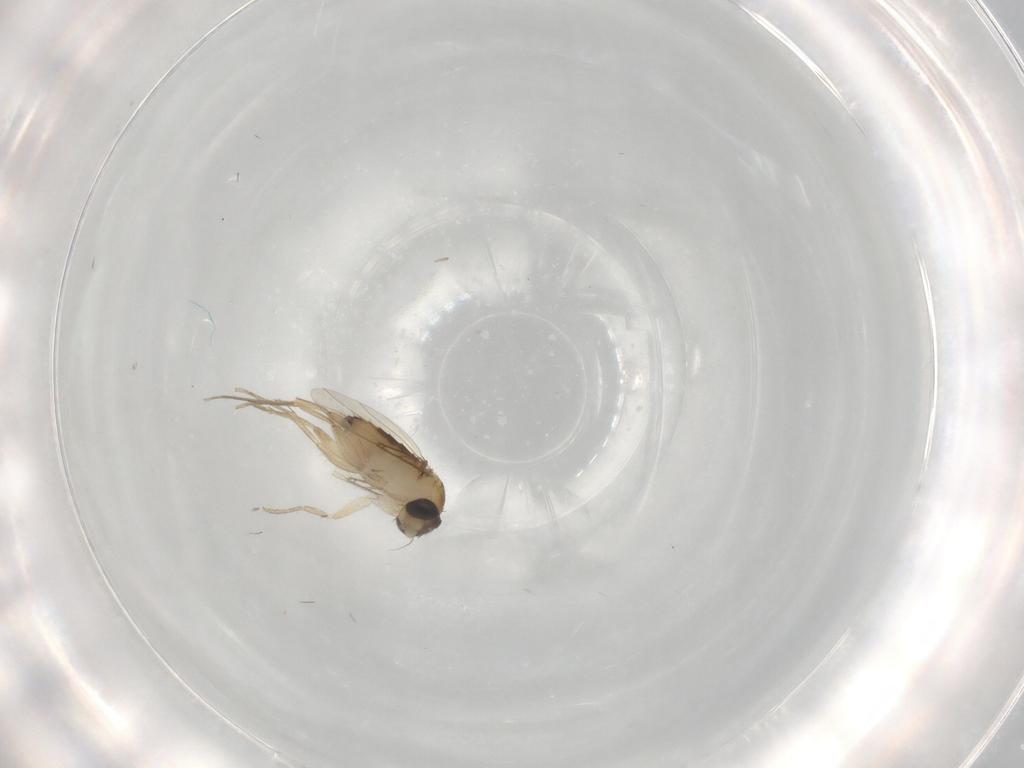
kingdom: Animalia
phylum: Arthropoda
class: Insecta
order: Diptera
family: Phoridae
